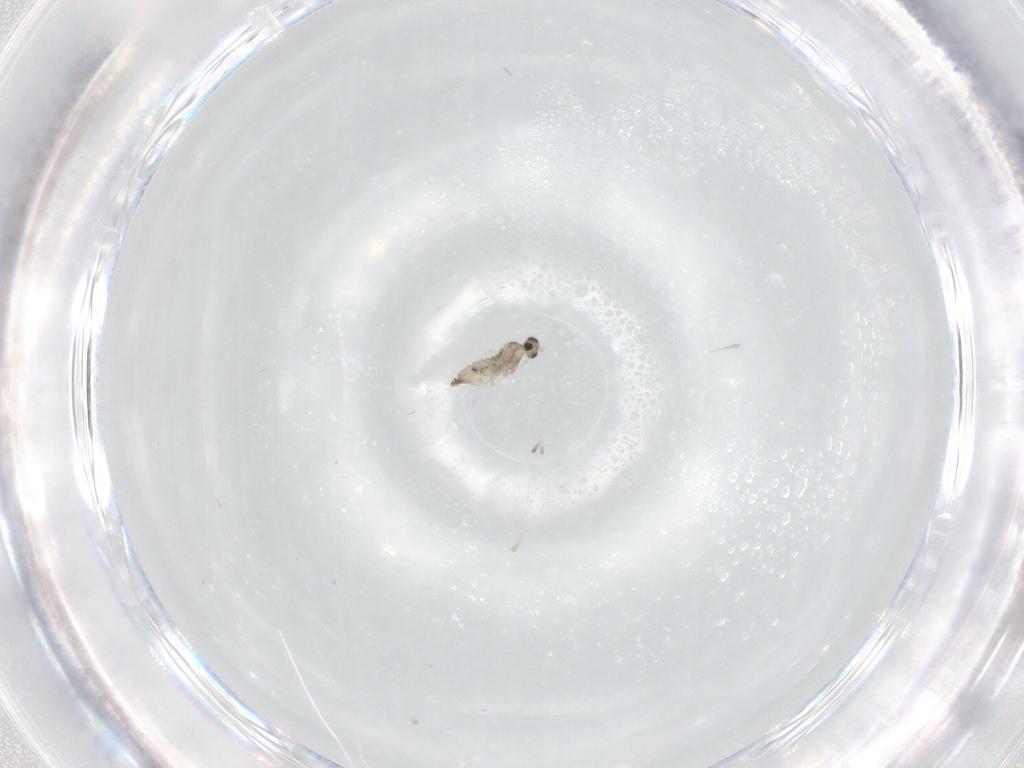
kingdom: Animalia
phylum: Arthropoda
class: Insecta
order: Diptera
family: Cecidomyiidae
